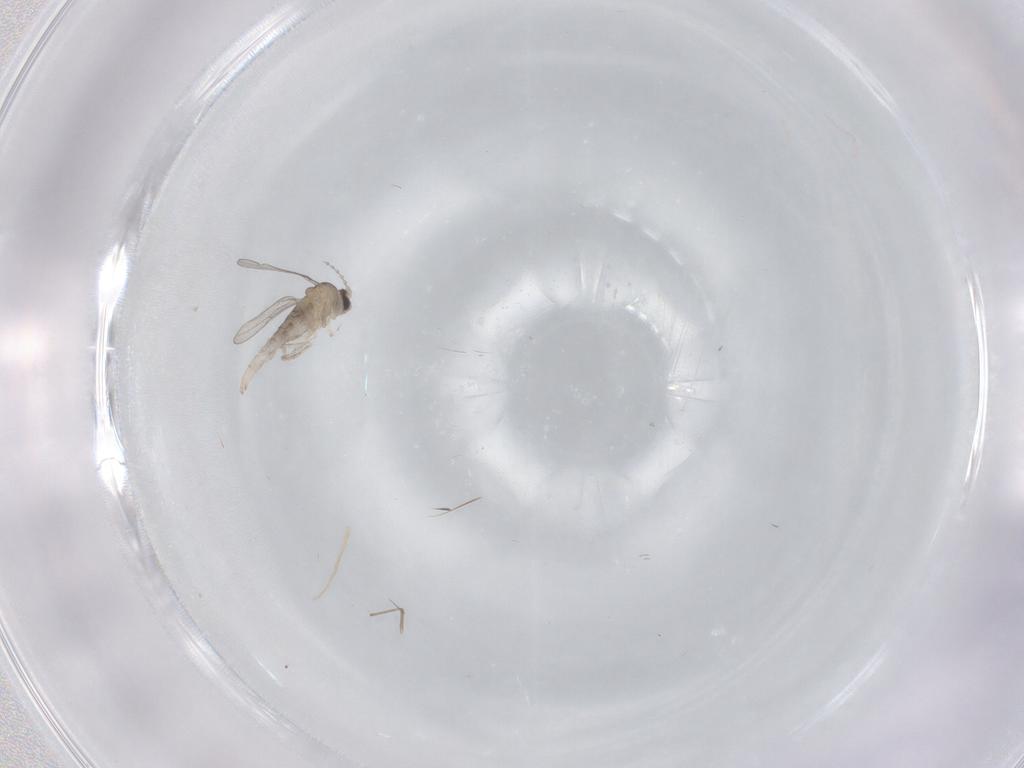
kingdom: Animalia
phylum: Arthropoda
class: Insecta
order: Diptera
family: Cecidomyiidae
